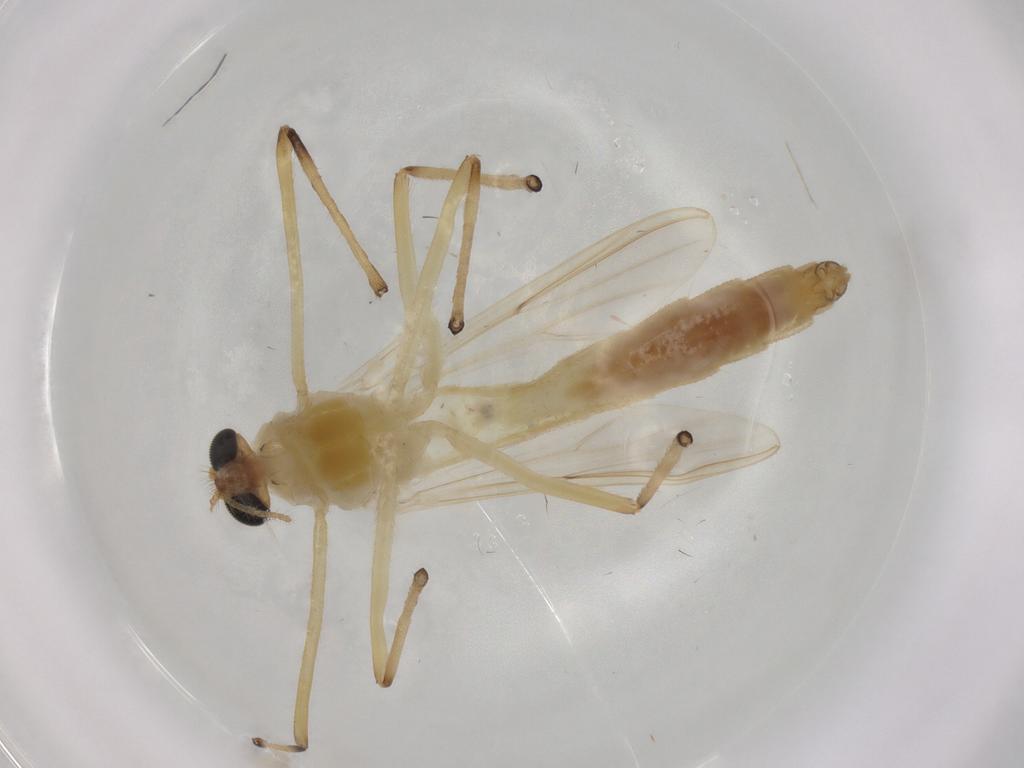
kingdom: Animalia
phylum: Arthropoda
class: Insecta
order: Diptera
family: Chironomidae
